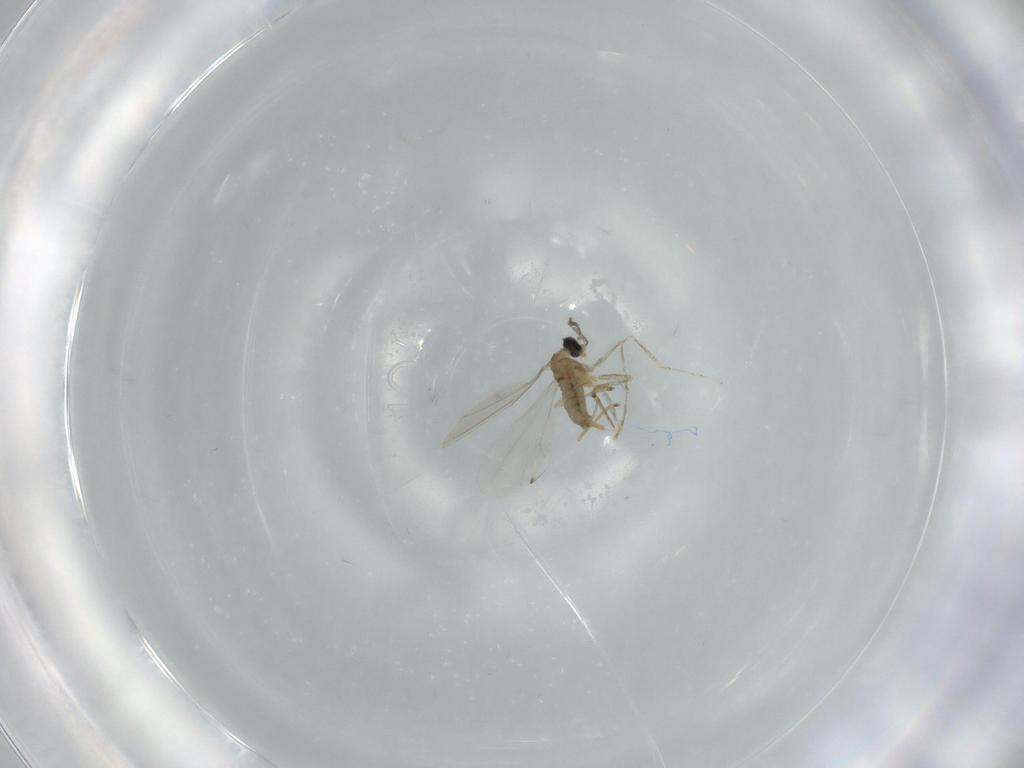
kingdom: Animalia
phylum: Arthropoda
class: Insecta
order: Diptera
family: Cecidomyiidae
